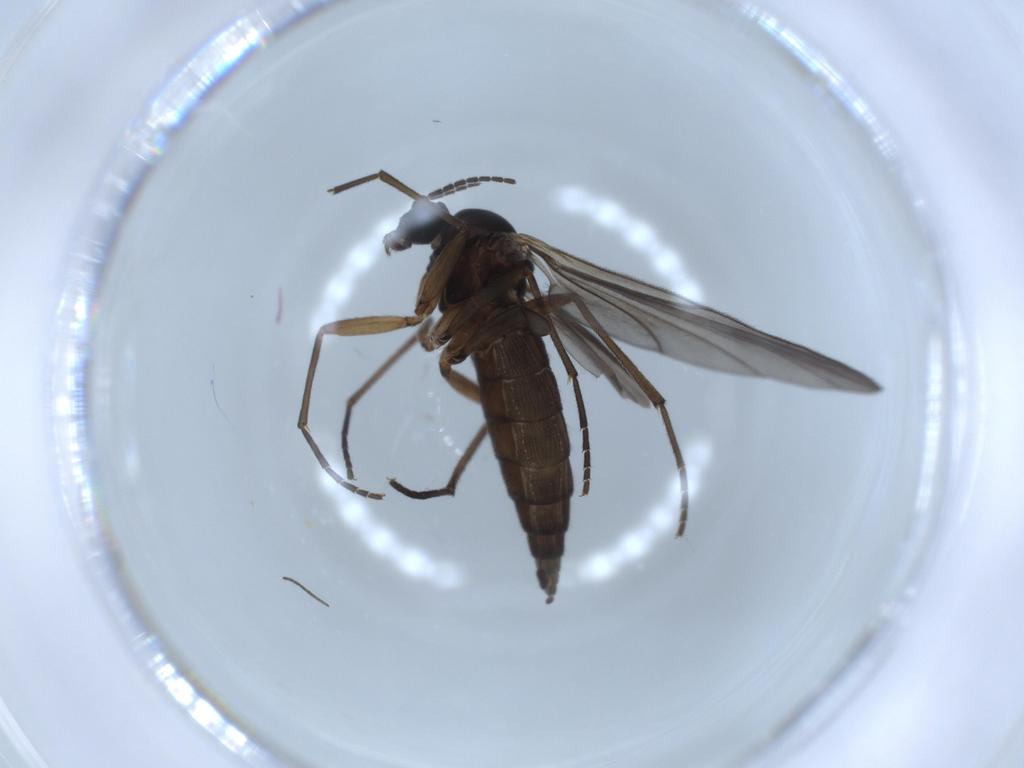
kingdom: Animalia
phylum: Arthropoda
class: Insecta
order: Diptera
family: Sciaridae
